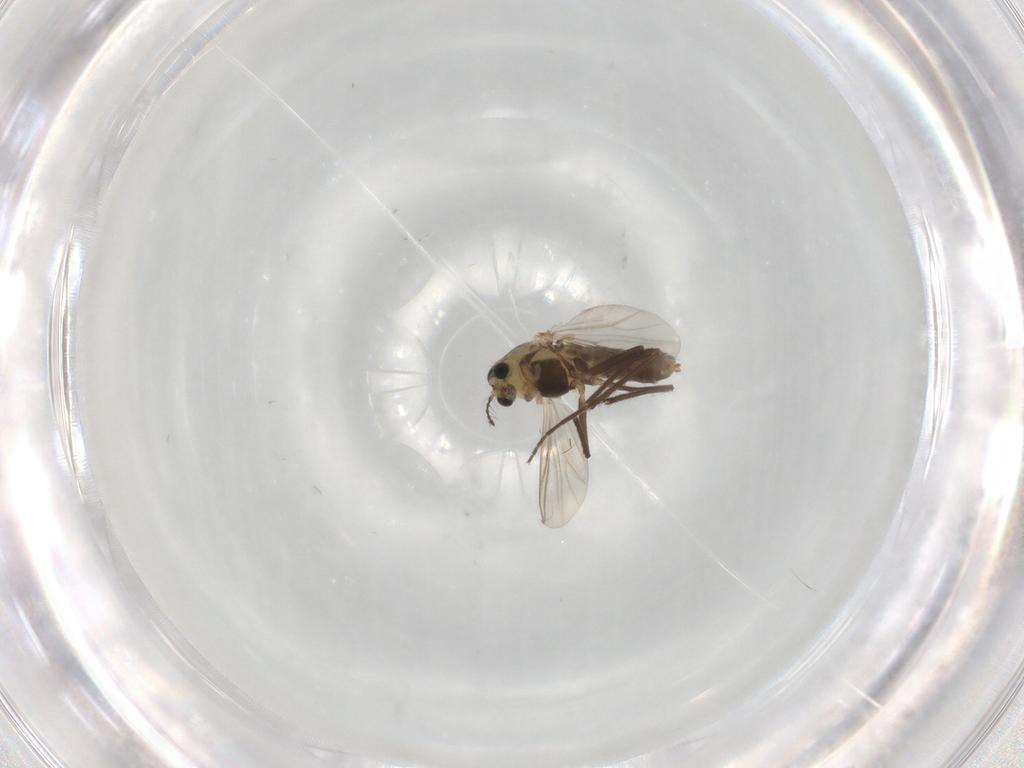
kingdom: Animalia
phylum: Arthropoda
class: Insecta
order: Diptera
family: Chironomidae
